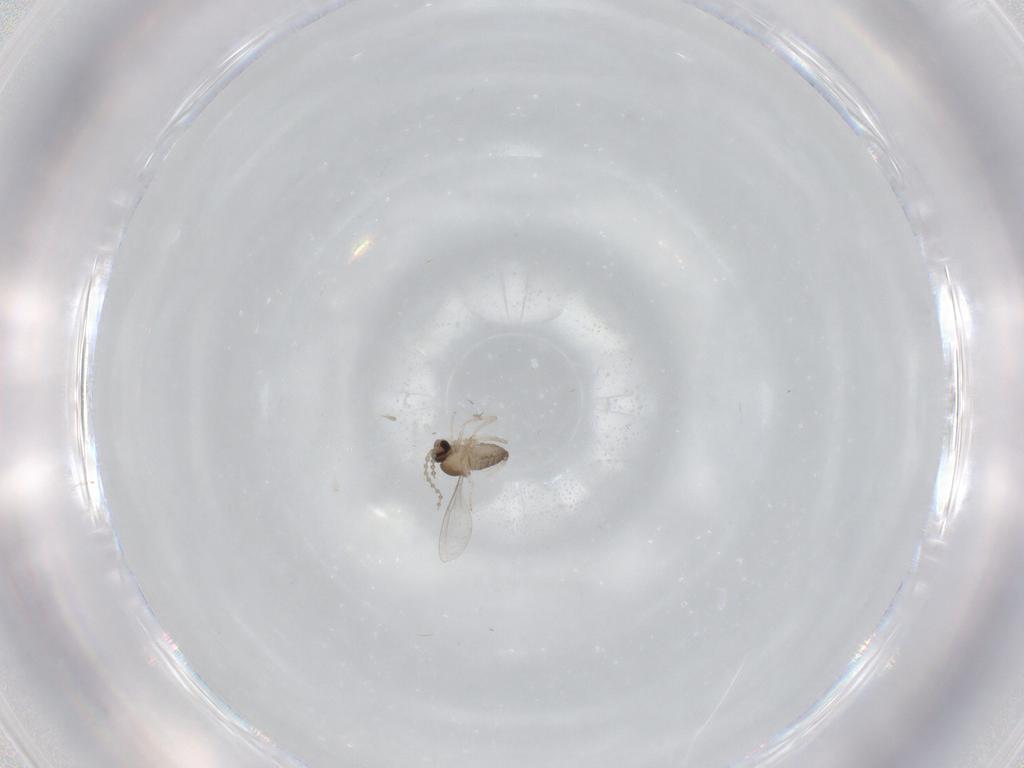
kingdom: Animalia
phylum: Arthropoda
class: Insecta
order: Diptera
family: Cecidomyiidae
